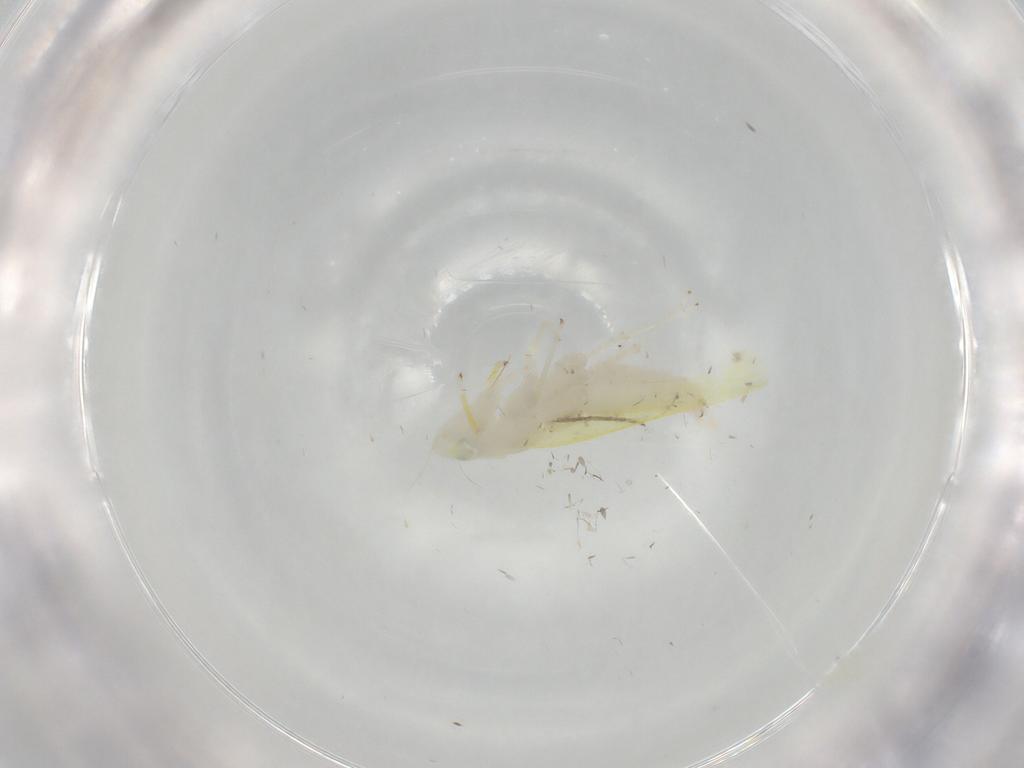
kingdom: Animalia
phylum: Arthropoda
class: Insecta
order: Hemiptera
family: Cicadellidae
